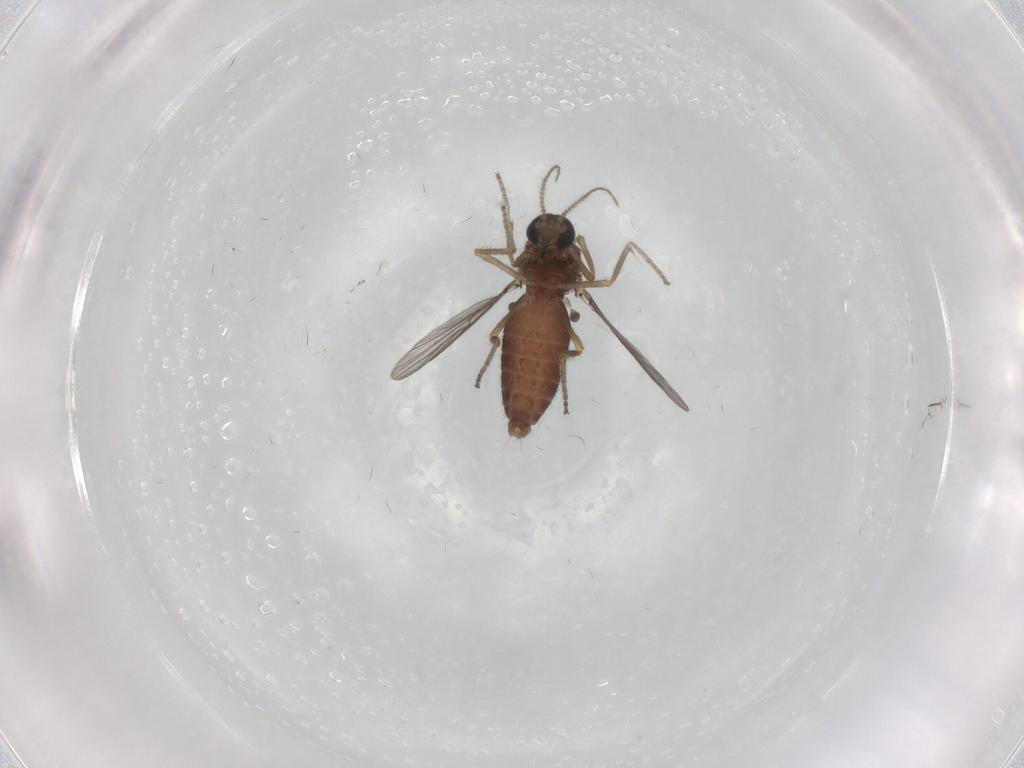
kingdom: Animalia
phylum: Arthropoda
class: Insecta
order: Diptera
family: Ceratopogonidae
